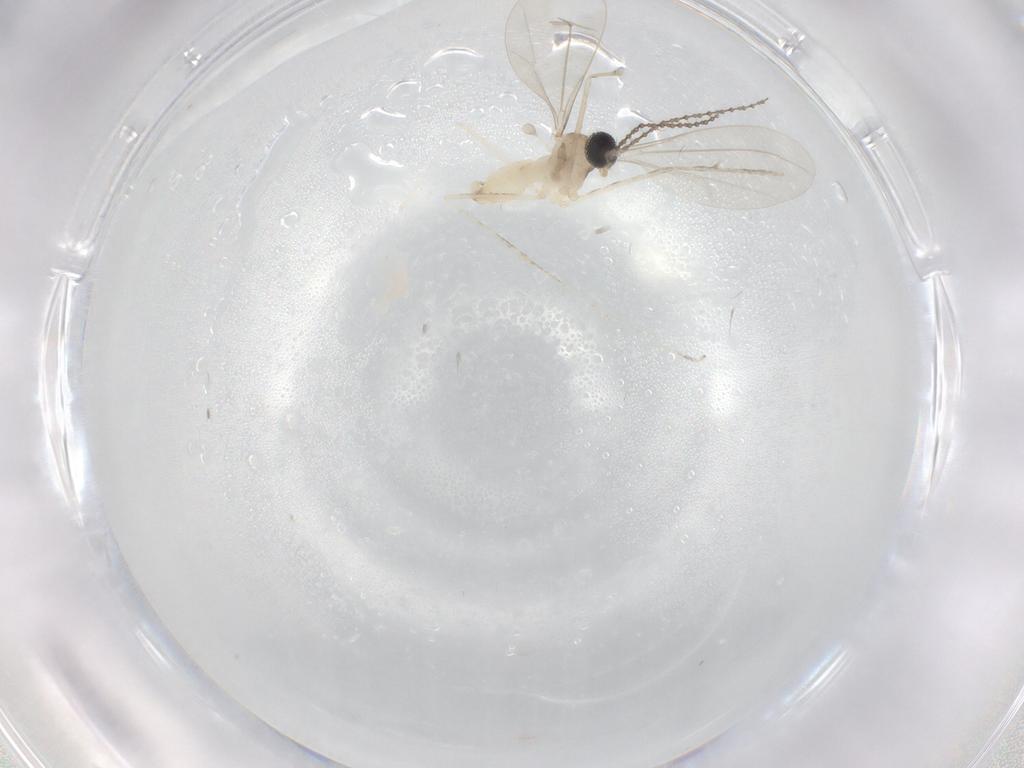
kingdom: Animalia
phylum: Arthropoda
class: Insecta
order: Diptera
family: Cecidomyiidae
